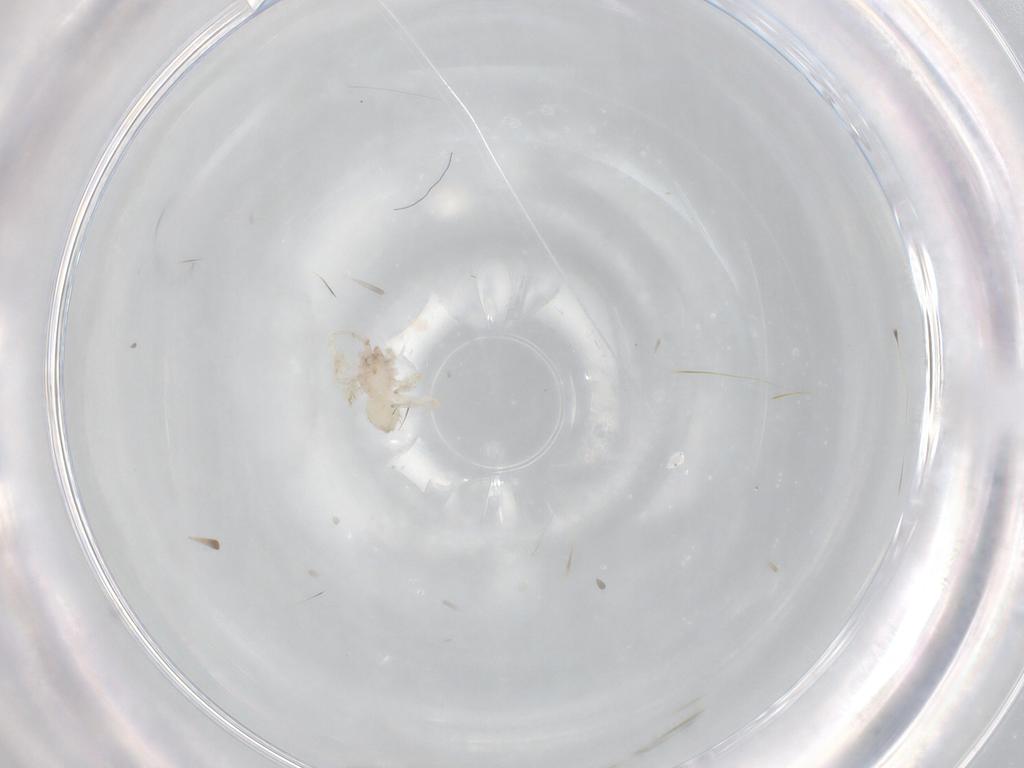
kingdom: Animalia
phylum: Arthropoda
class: Arachnida
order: Araneae
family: Idiopidae
